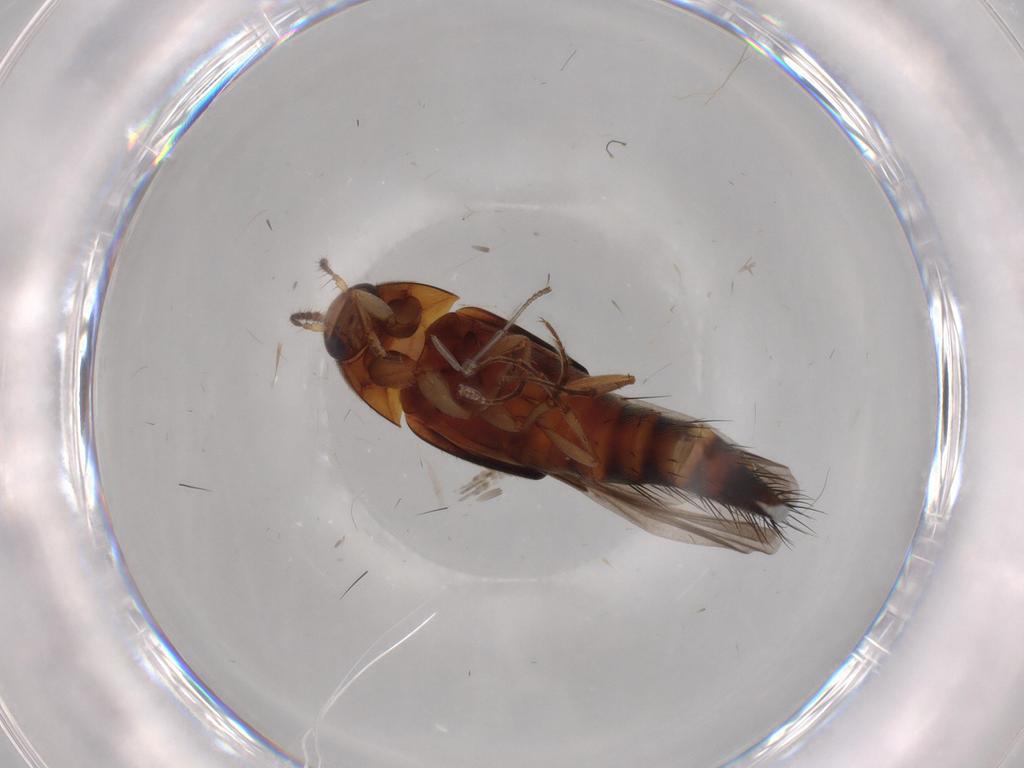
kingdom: Animalia
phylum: Arthropoda
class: Insecta
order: Coleoptera
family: Staphylinidae
